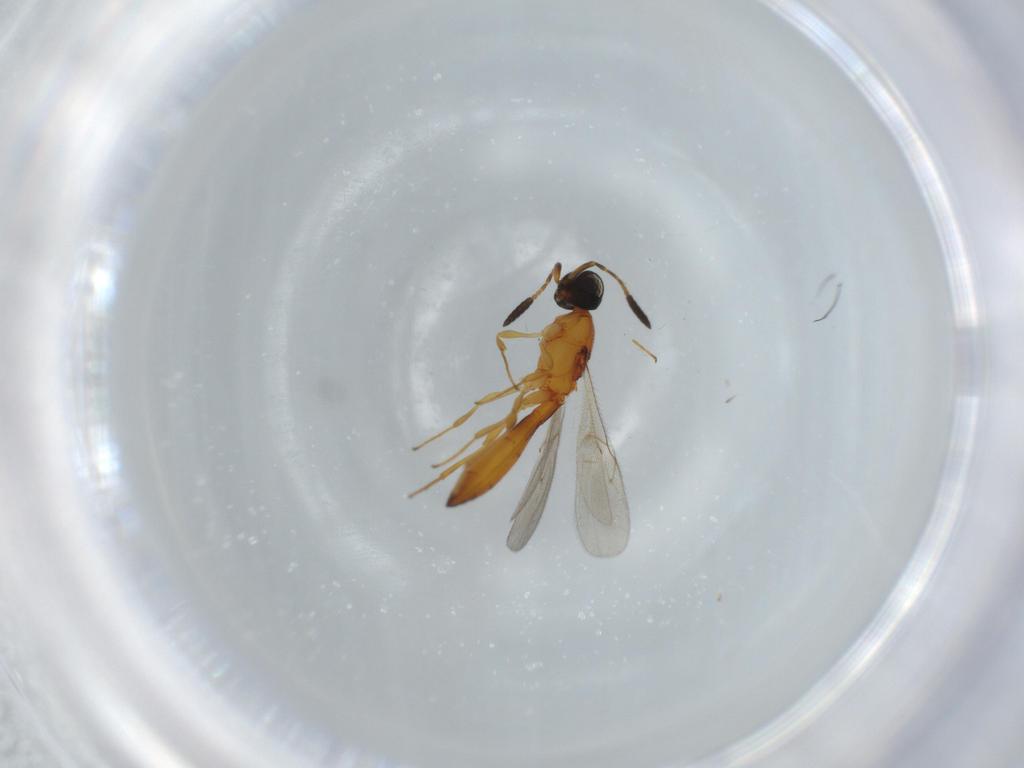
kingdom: Animalia
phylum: Arthropoda
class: Insecta
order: Hymenoptera
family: Scelionidae
